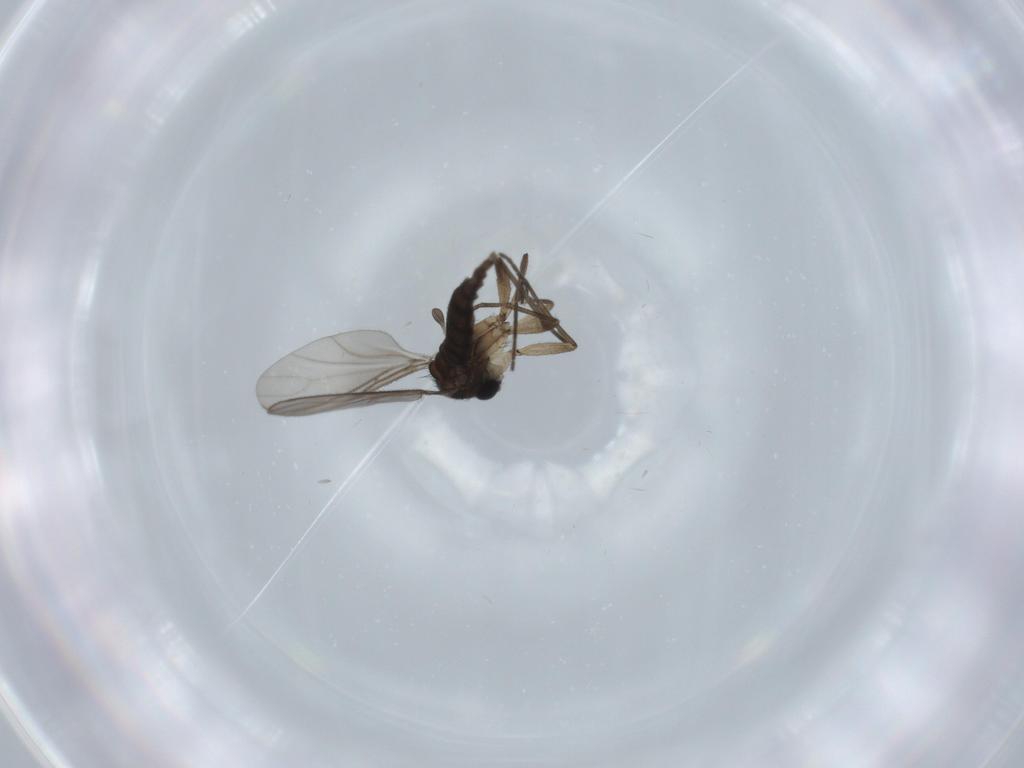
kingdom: Animalia
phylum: Arthropoda
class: Insecta
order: Diptera
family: Sciaridae
